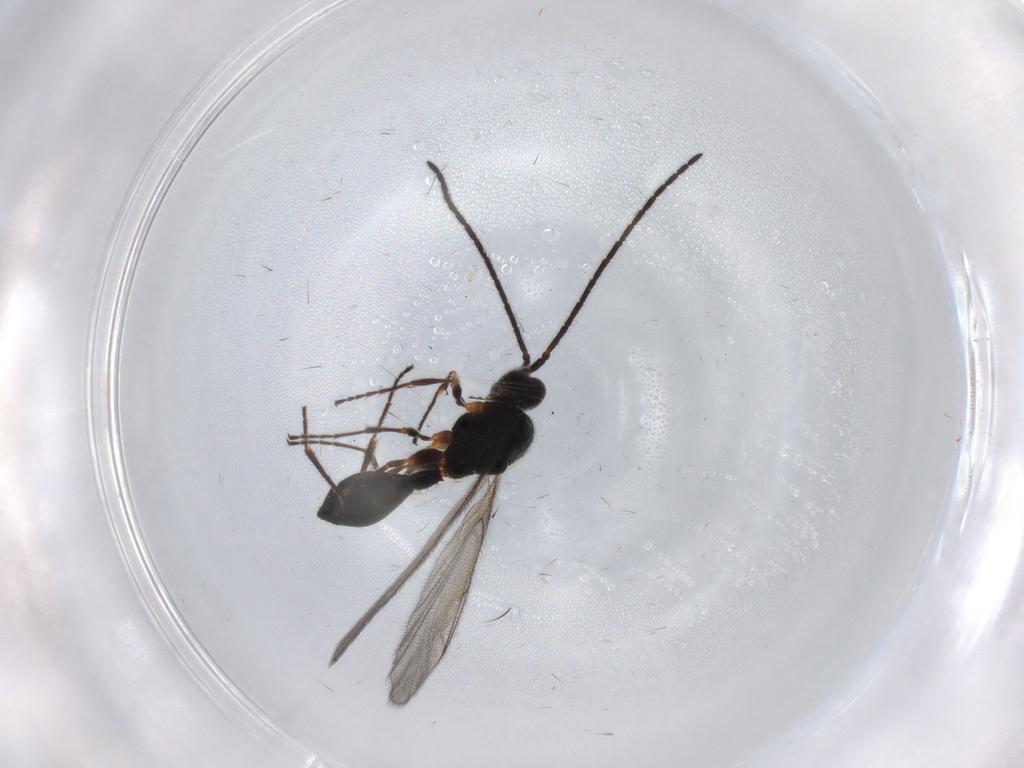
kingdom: Animalia
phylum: Arthropoda
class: Insecta
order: Hymenoptera
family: Diapriidae
